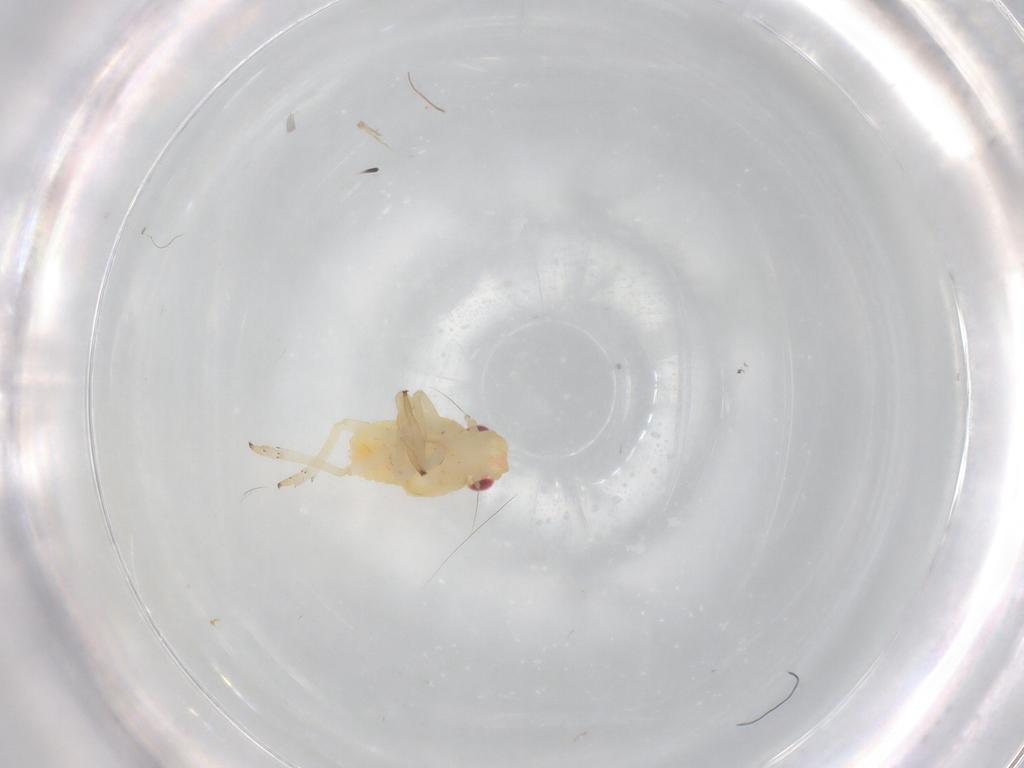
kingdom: Animalia
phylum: Arthropoda
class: Insecta
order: Hemiptera
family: Caliscelidae
